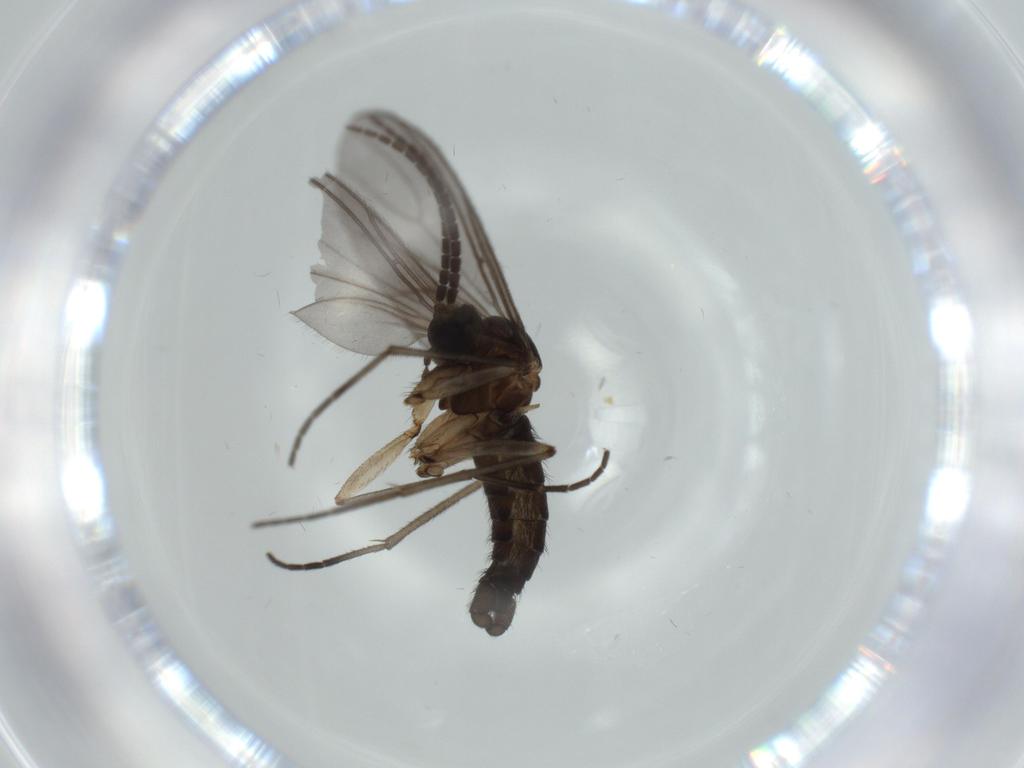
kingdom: Animalia
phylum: Arthropoda
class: Insecta
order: Diptera
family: Sciaridae
